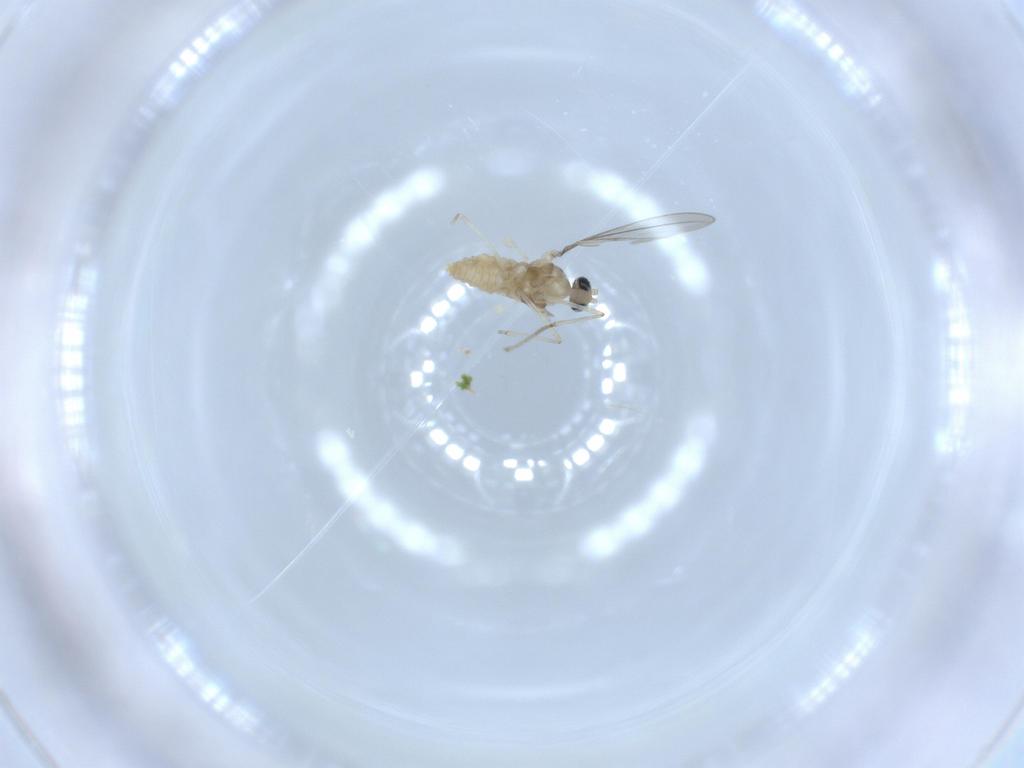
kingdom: Animalia
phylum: Arthropoda
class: Insecta
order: Diptera
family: Cecidomyiidae
